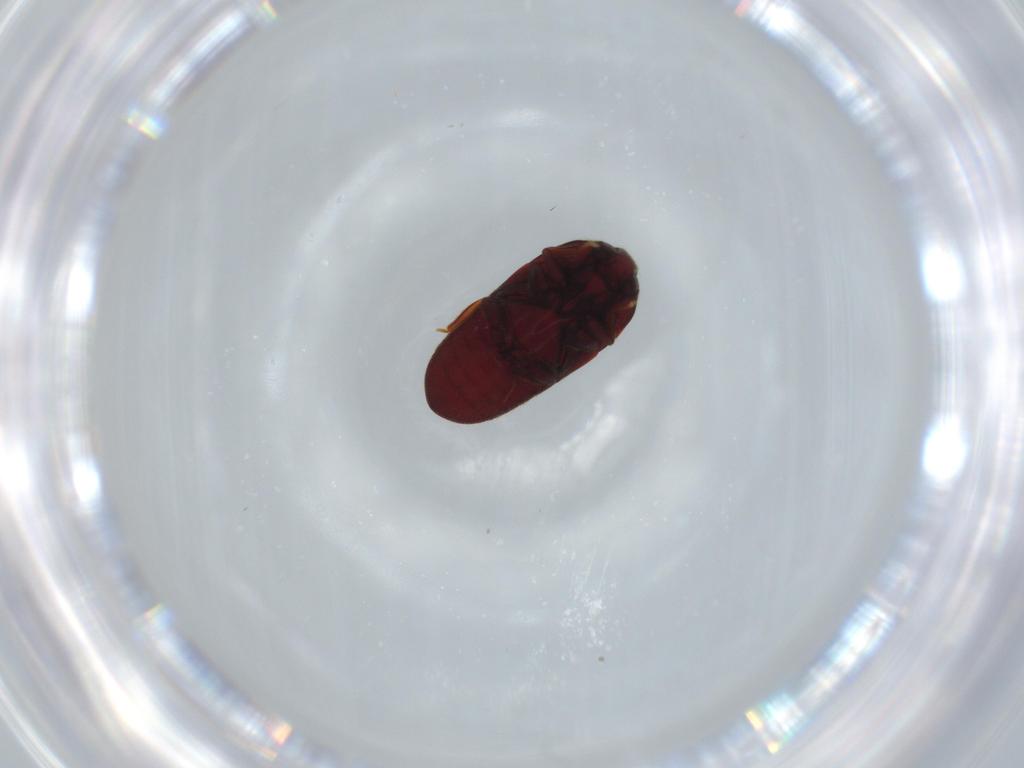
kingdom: Animalia
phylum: Arthropoda
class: Insecta
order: Coleoptera
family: Throscidae
